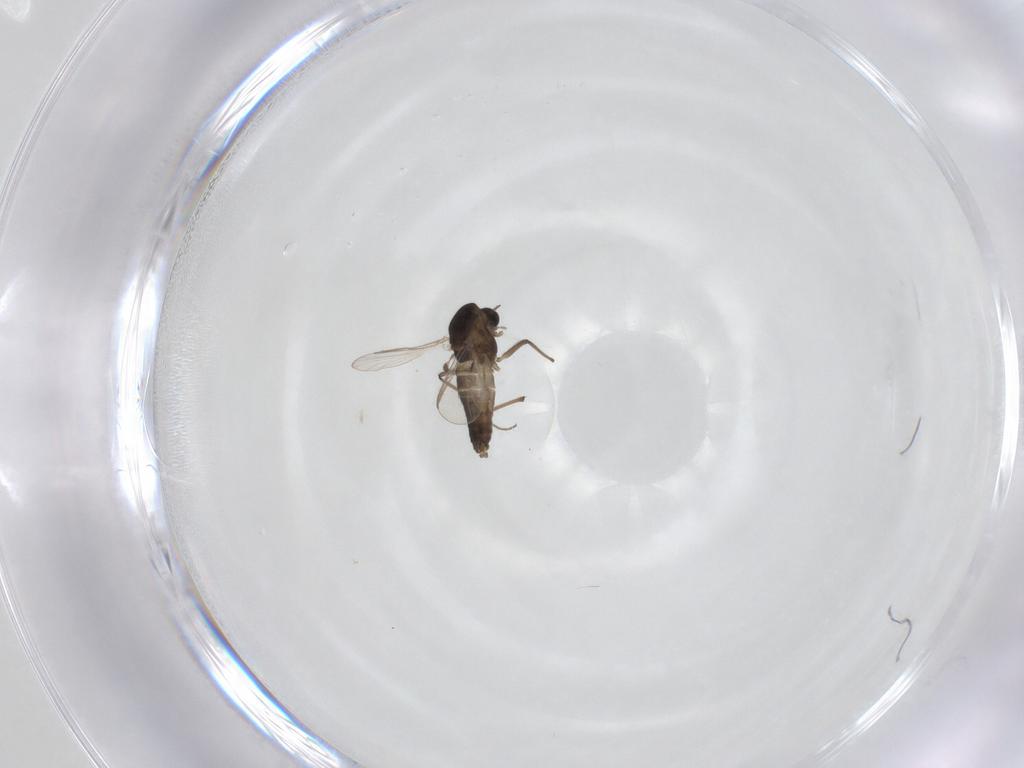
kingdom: Animalia
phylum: Arthropoda
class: Insecta
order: Diptera
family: Chironomidae
